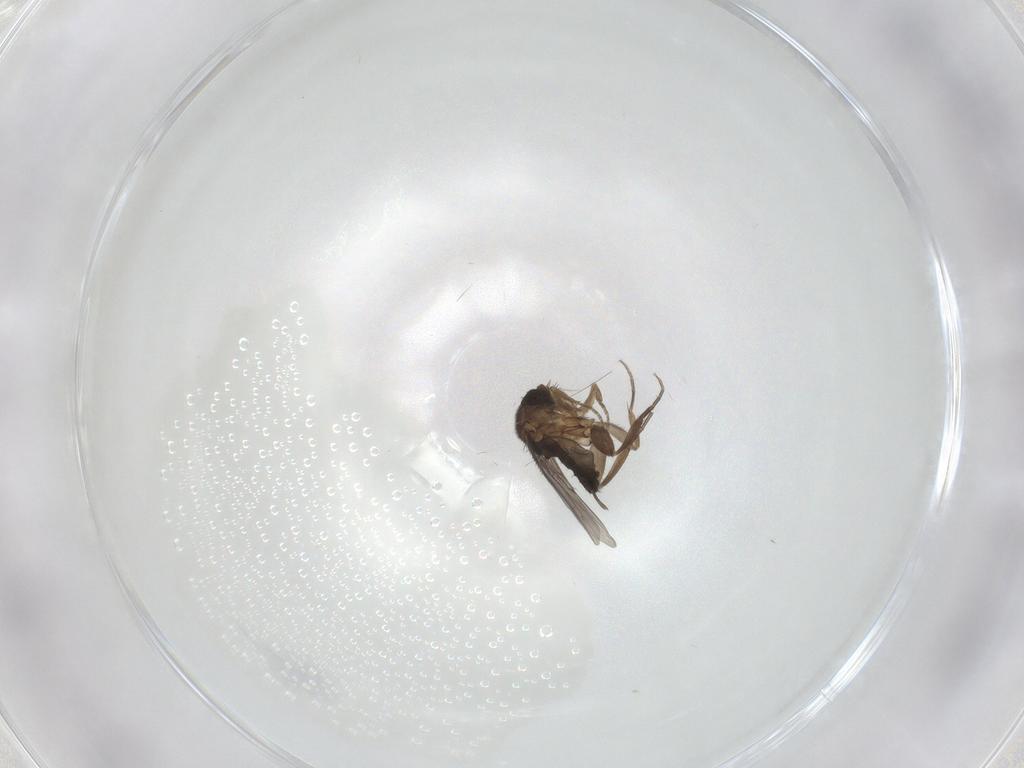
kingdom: Animalia
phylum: Arthropoda
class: Insecta
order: Diptera
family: Phoridae
